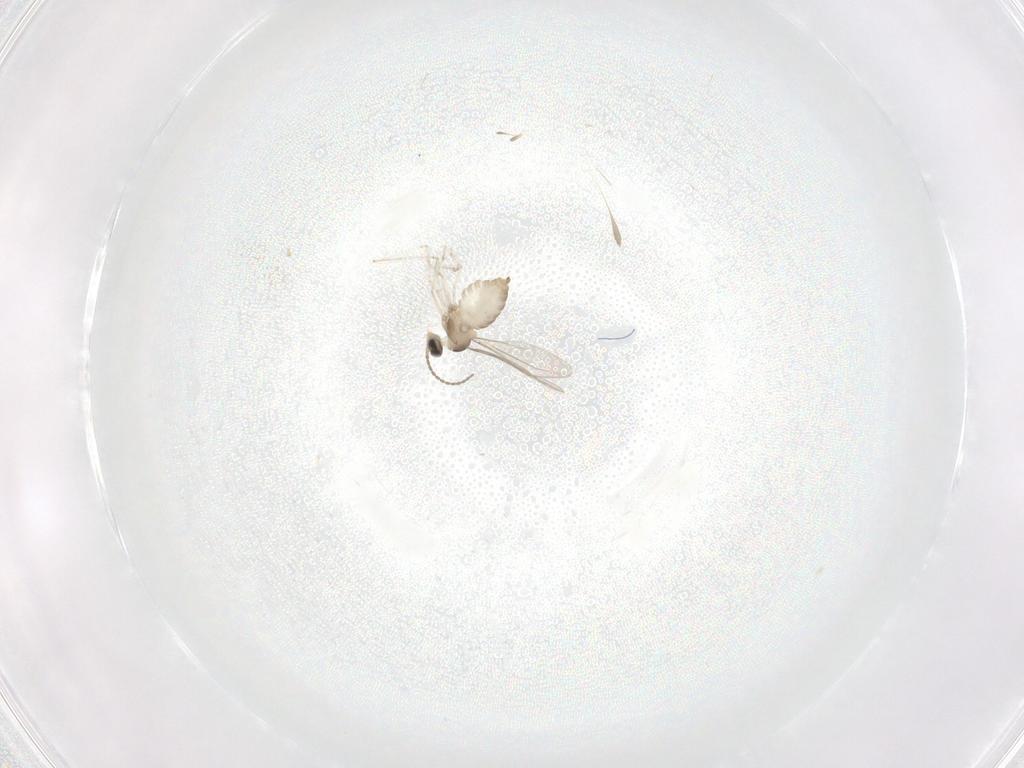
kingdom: Animalia
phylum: Arthropoda
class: Insecta
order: Diptera
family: Cecidomyiidae
